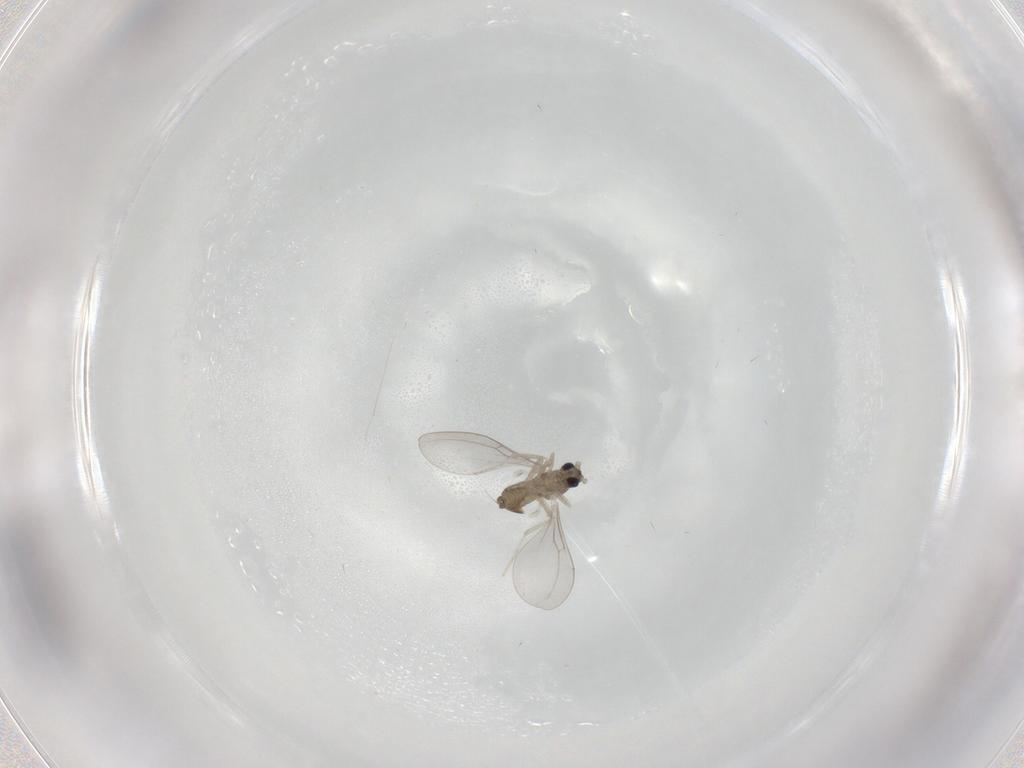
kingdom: Animalia
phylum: Arthropoda
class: Insecta
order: Diptera
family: Cecidomyiidae
